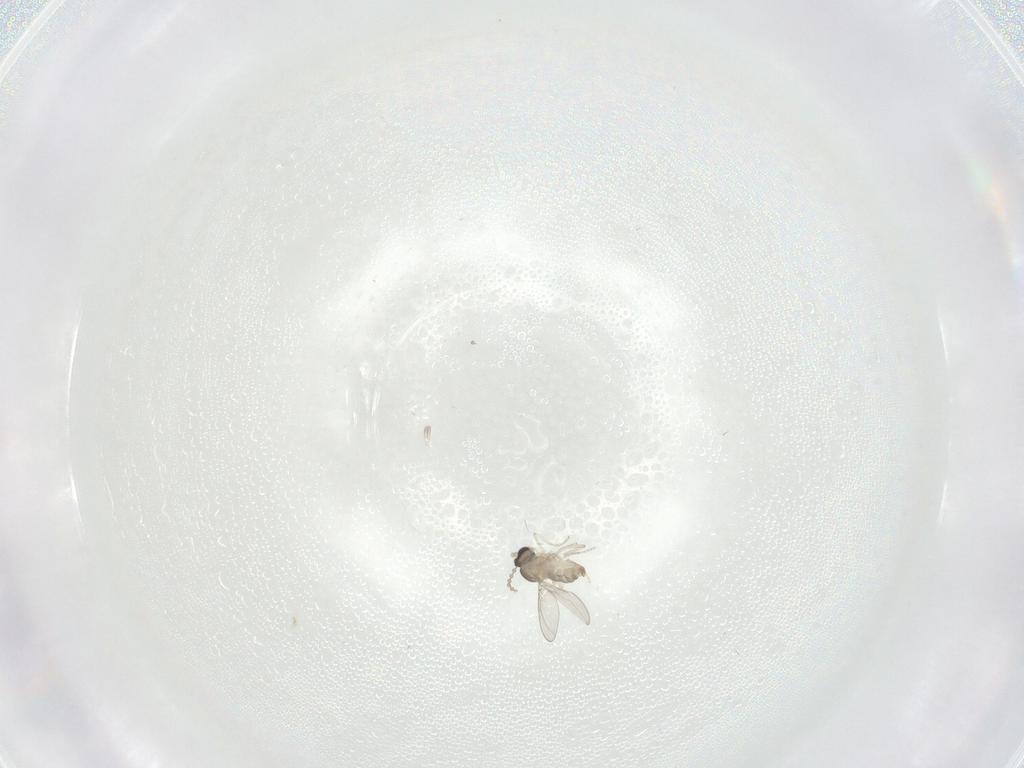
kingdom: Animalia
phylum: Arthropoda
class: Insecta
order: Diptera
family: Cecidomyiidae
